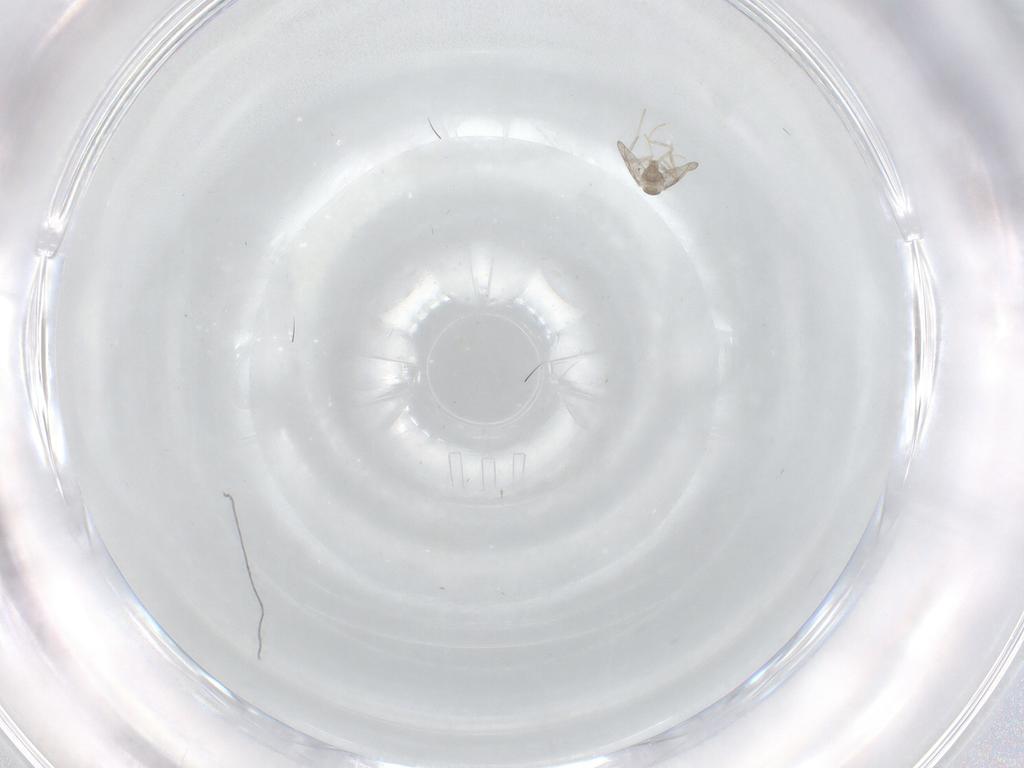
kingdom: Animalia
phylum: Arthropoda
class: Insecta
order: Diptera
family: Cecidomyiidae
